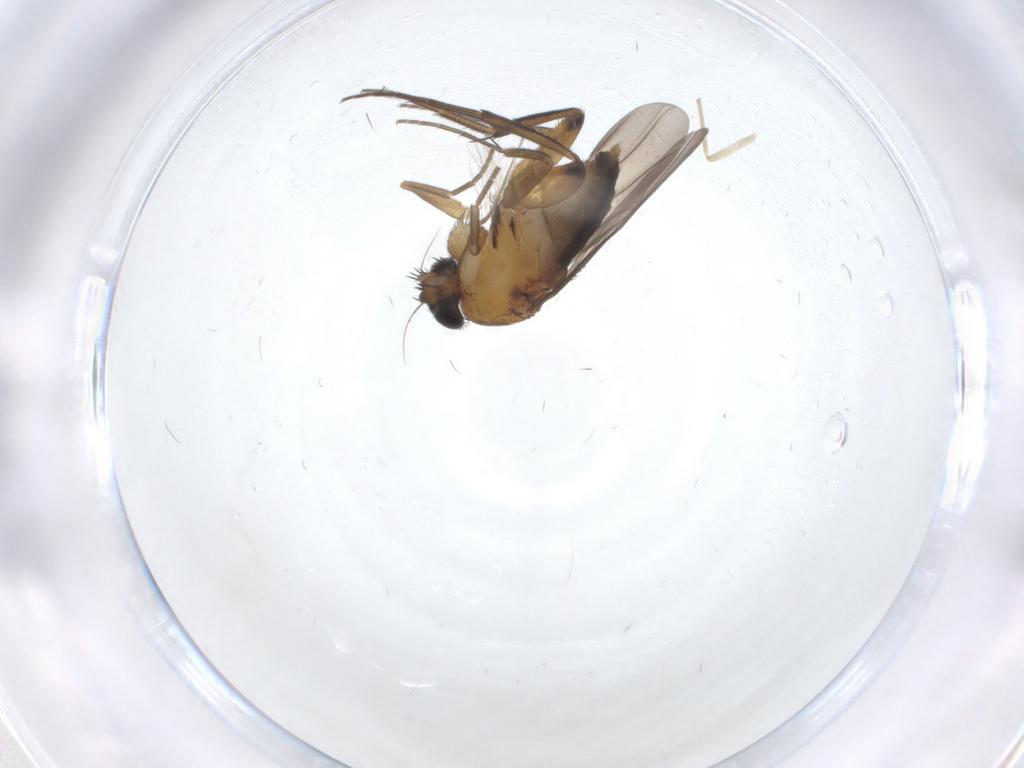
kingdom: Animalia
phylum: Arthropoda
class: Insecta
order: Diptera
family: Phoridae
